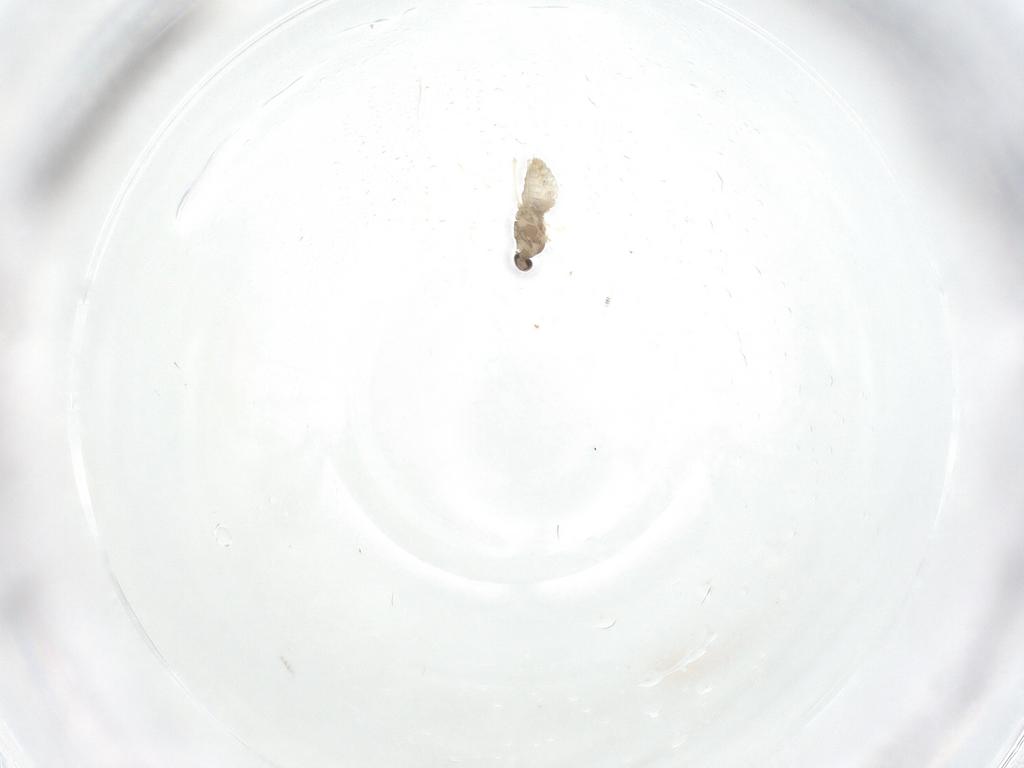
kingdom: Animalia
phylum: Arthropoda
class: Insecta
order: Diptera
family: Cecidomyiidae
